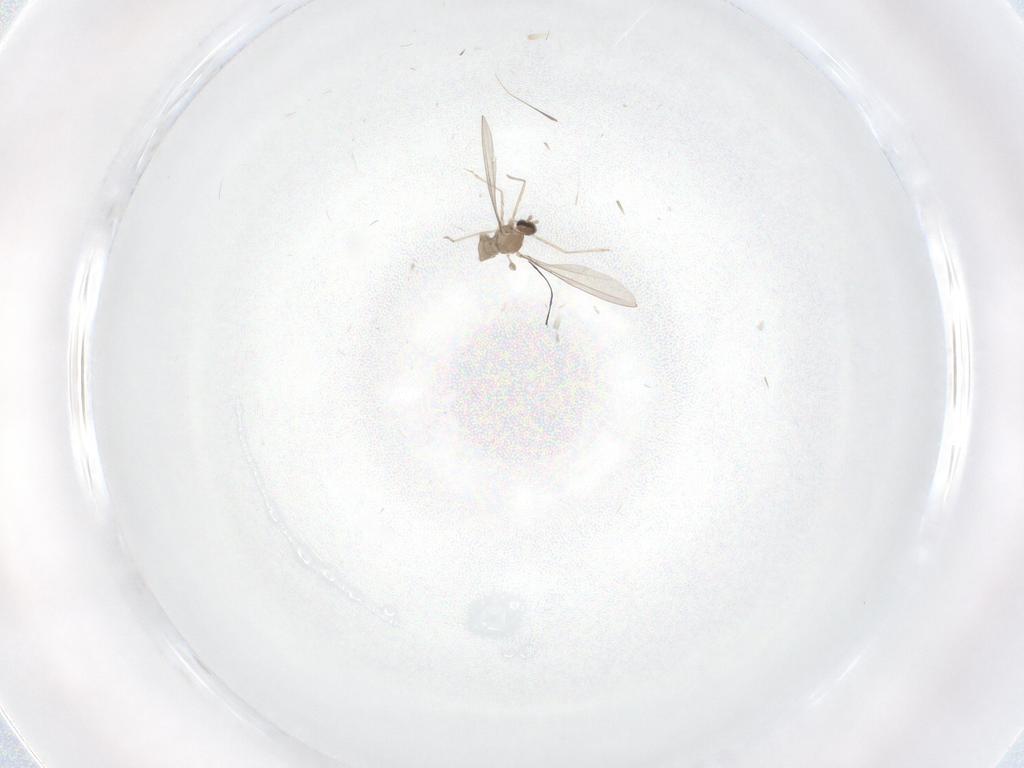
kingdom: Animalia
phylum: Arthropoda
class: Insecta
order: Diptera
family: Cecidomyiidae
